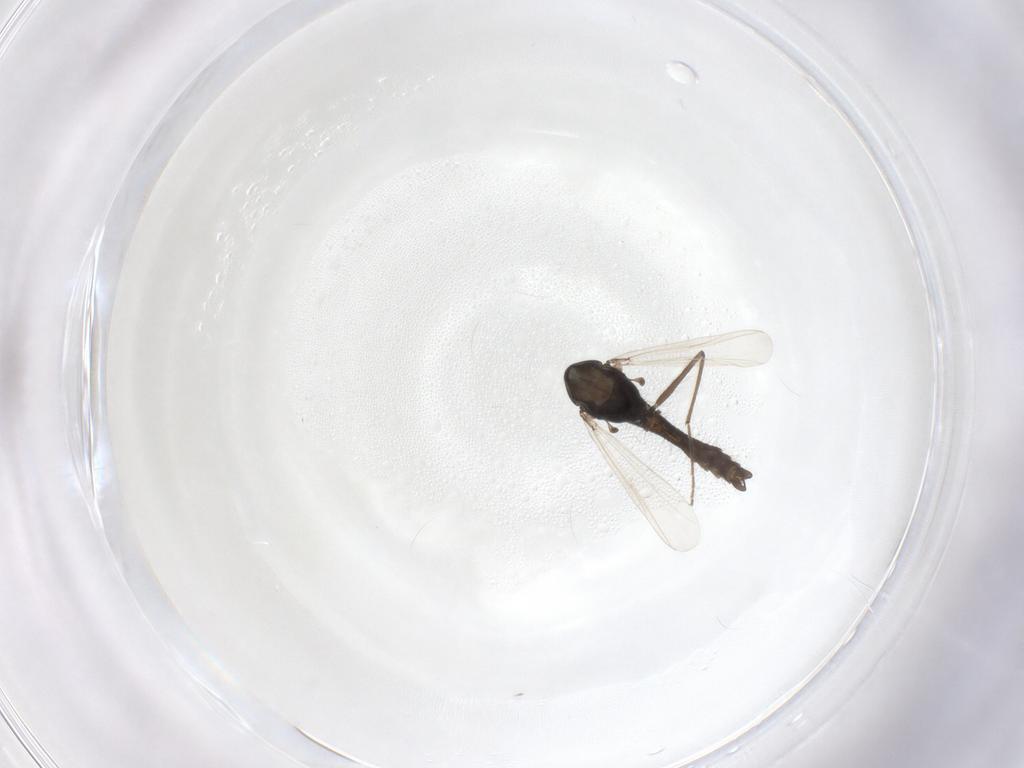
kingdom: Animalia
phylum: Arthropoda
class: Insecta
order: Diptera
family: Chironomidae
